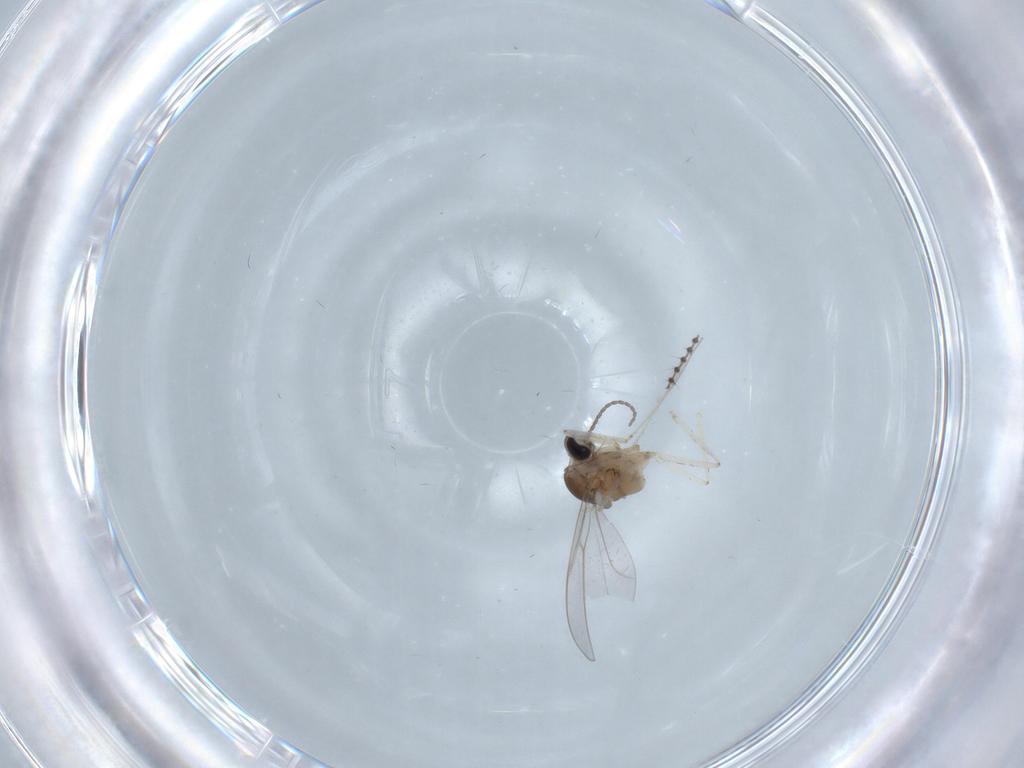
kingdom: Animalia
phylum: Arthropoda
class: Insecta
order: Diptera
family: Cecidomyiidae
